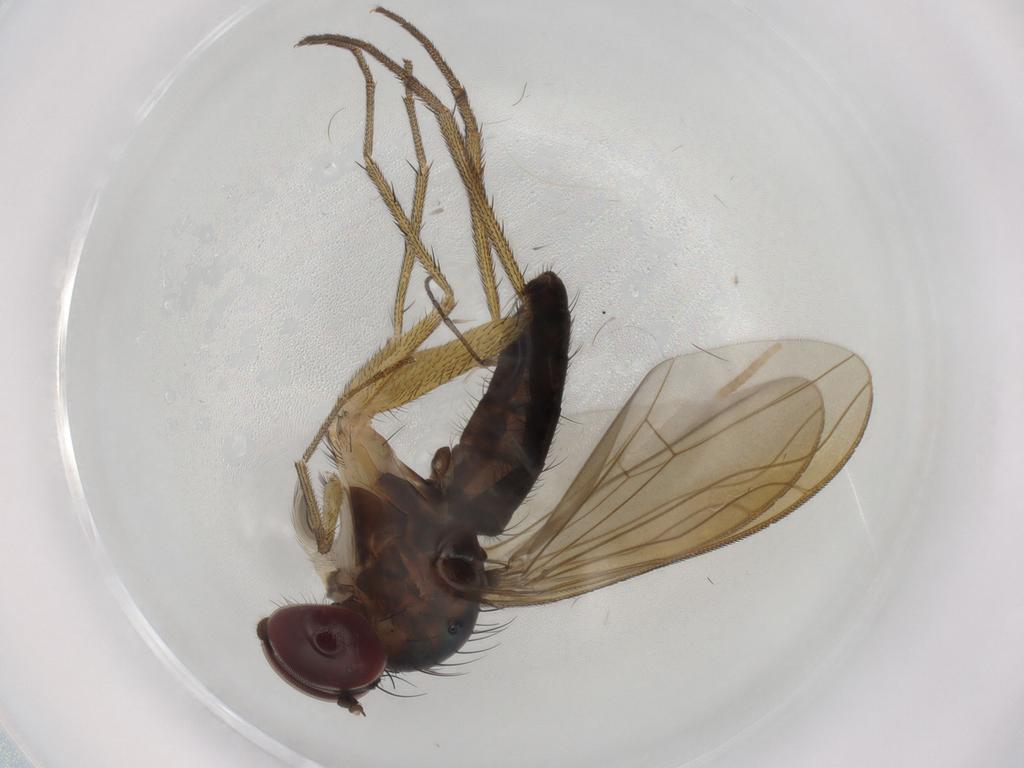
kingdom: Animalia
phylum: Arthropoda
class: Insecta
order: Diptera
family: Dolichopodidae
